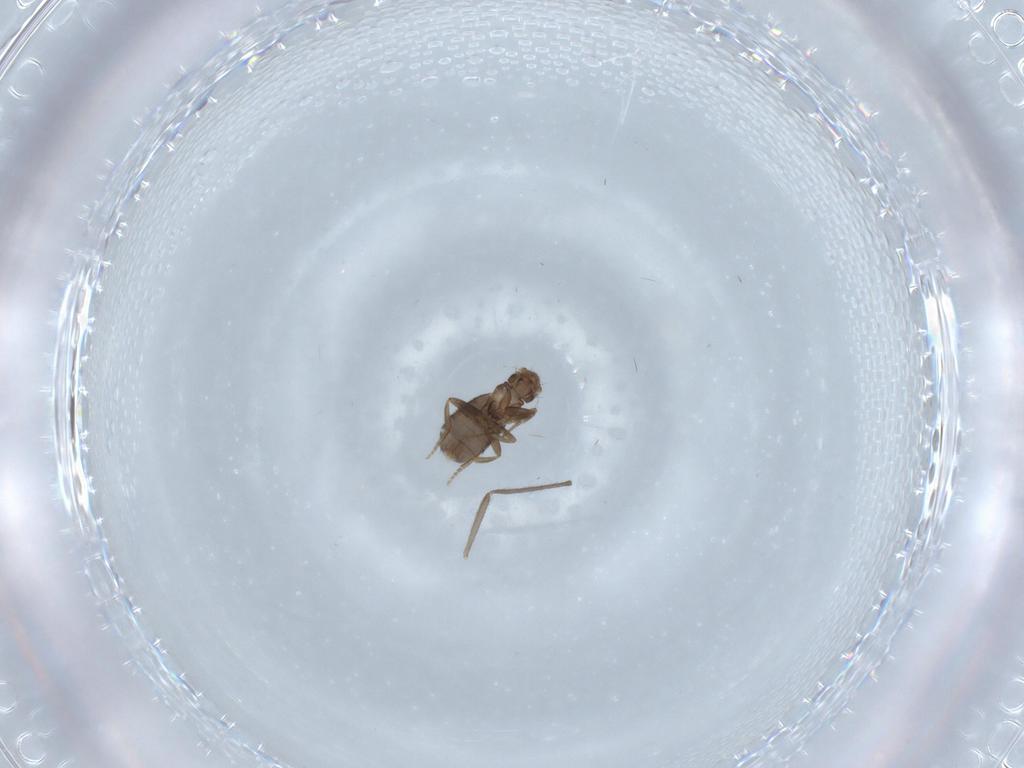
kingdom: Animalia
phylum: Arthropoda
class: Insecta
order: Diptera
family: Chironomidae
